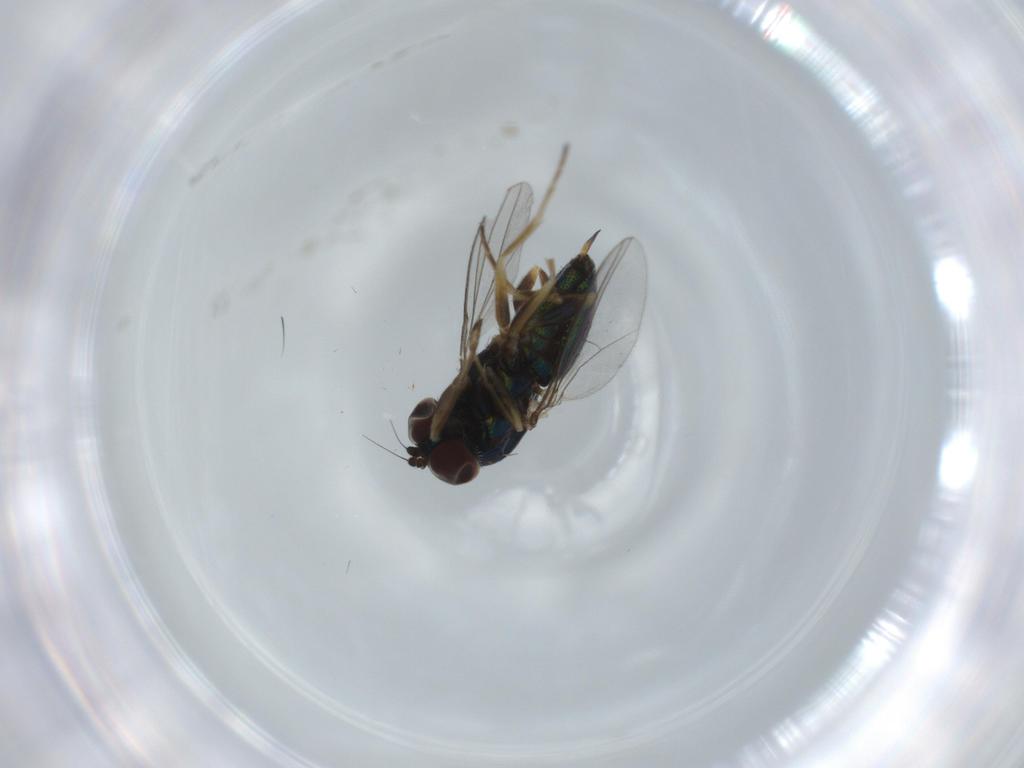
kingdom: Animalia
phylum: Arthropoda
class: Insecta
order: Diptera
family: Dolichopodidae
